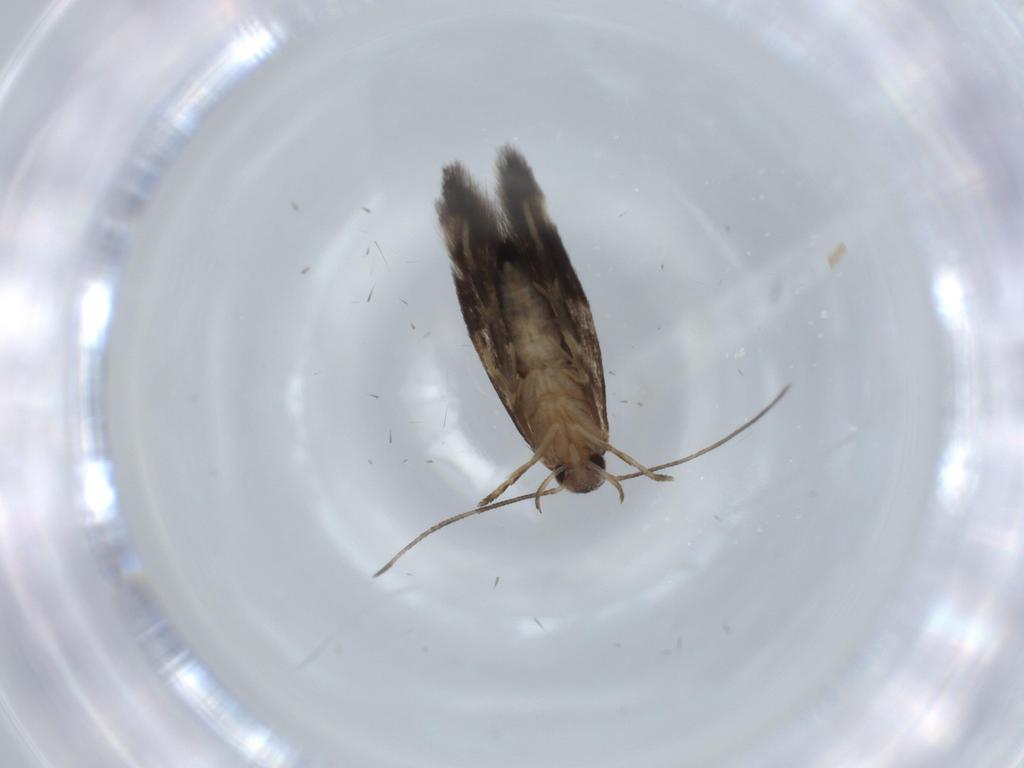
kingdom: Animalia
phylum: Arthropoda
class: Insecta
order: Lepidoptera
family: Gelechiidae
